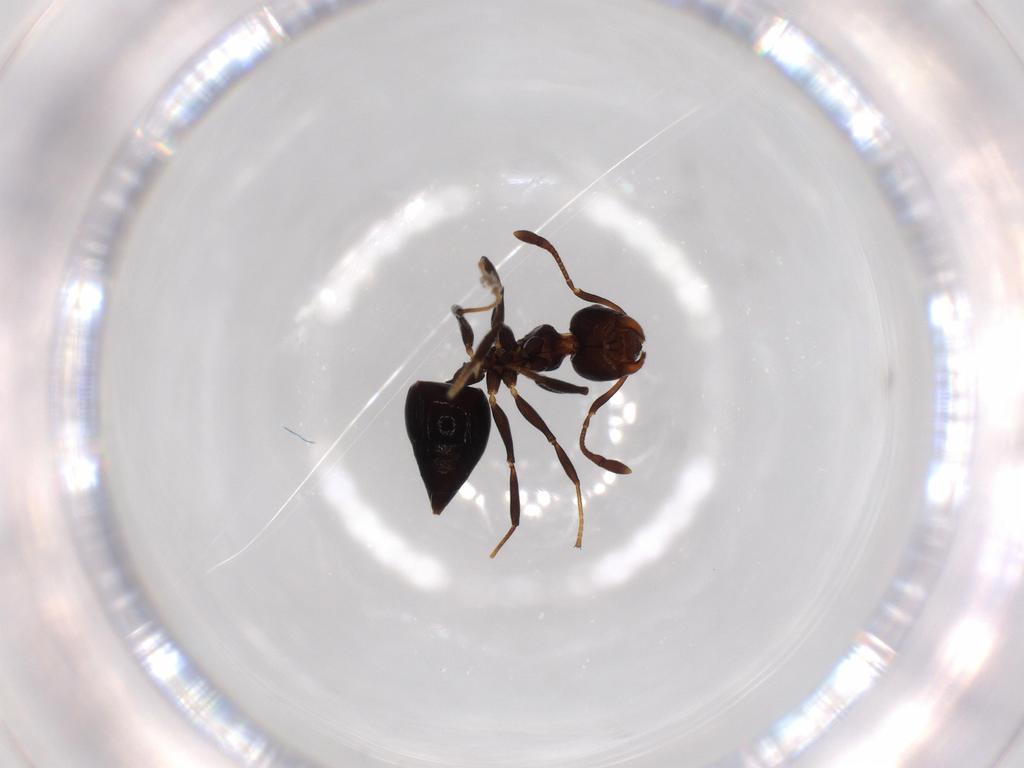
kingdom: Animalia
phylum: Arthropoda
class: Insecta
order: Hymenoptera
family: Formicidae
